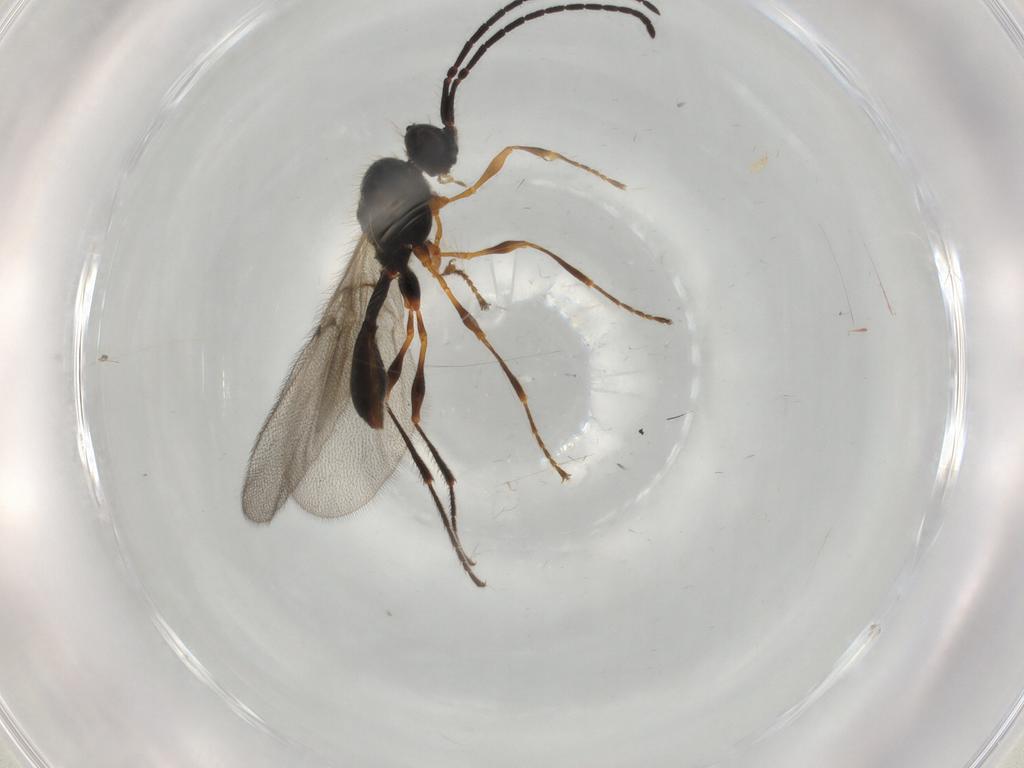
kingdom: Animalia
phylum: Arthropoda
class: Insecta
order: Hymenoptera
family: Diapriidae
